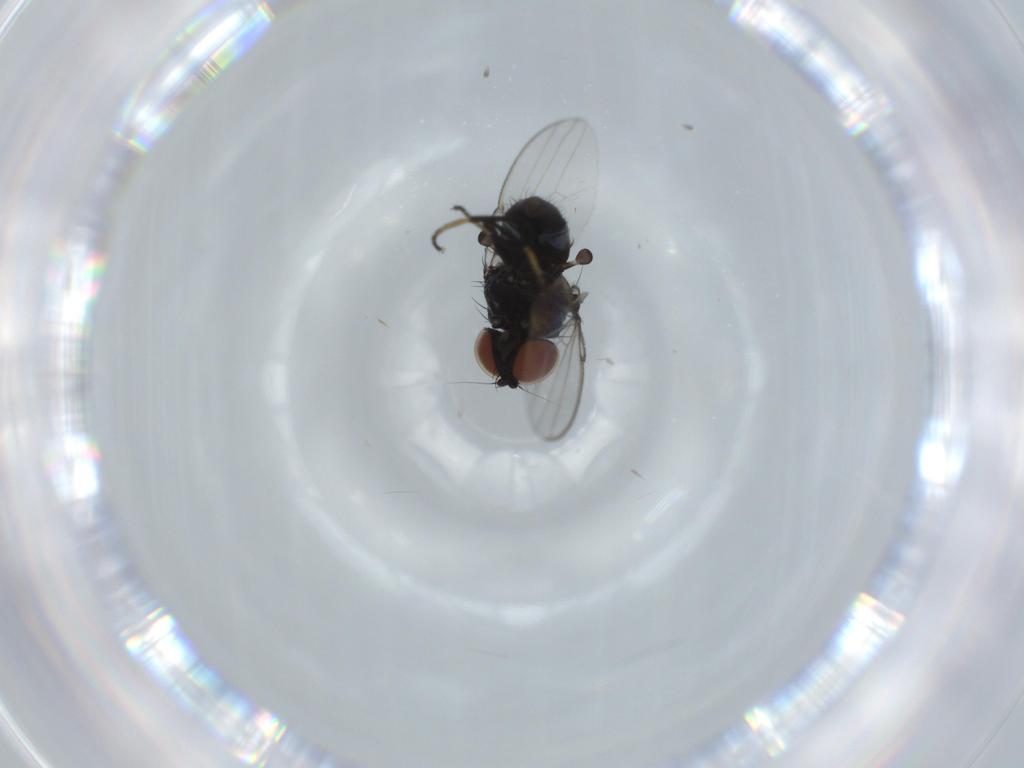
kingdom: Animalia
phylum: Arthropoda
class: Insecta
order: Diptera
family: Milichiidae
